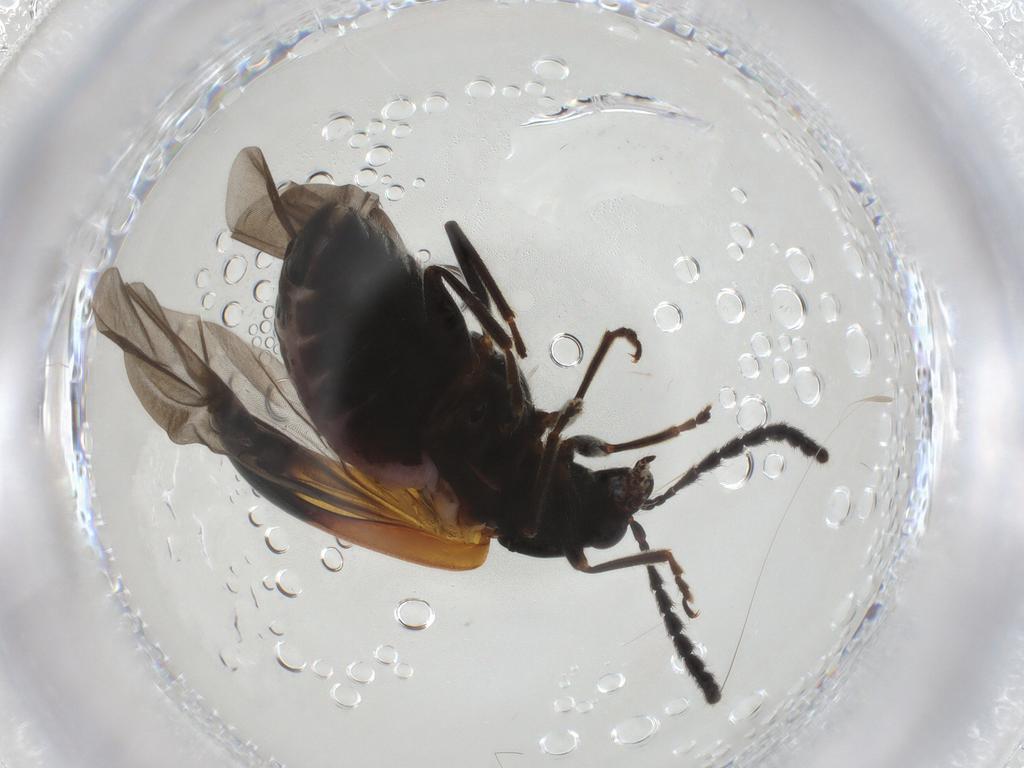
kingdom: Animalia
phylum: Arthropoda
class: Insecta
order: Coleoptera
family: Chrysomelidae
